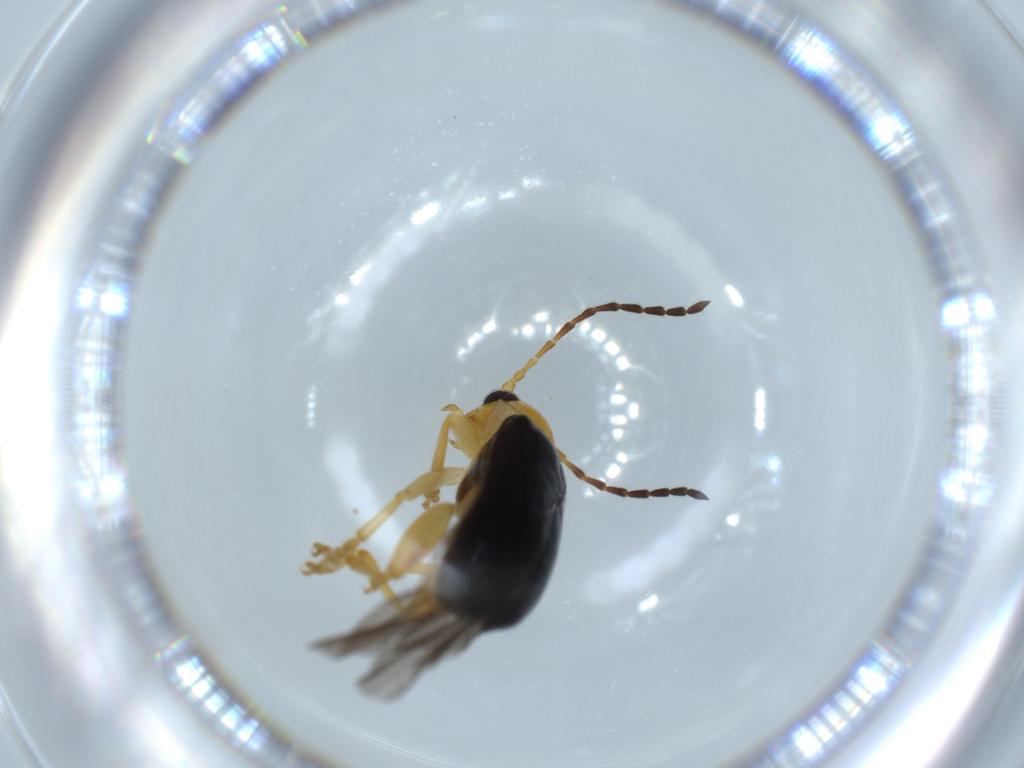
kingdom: Animalia
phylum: Arthropoda
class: Insecta
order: Coleoptera
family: Chrysomelidae
